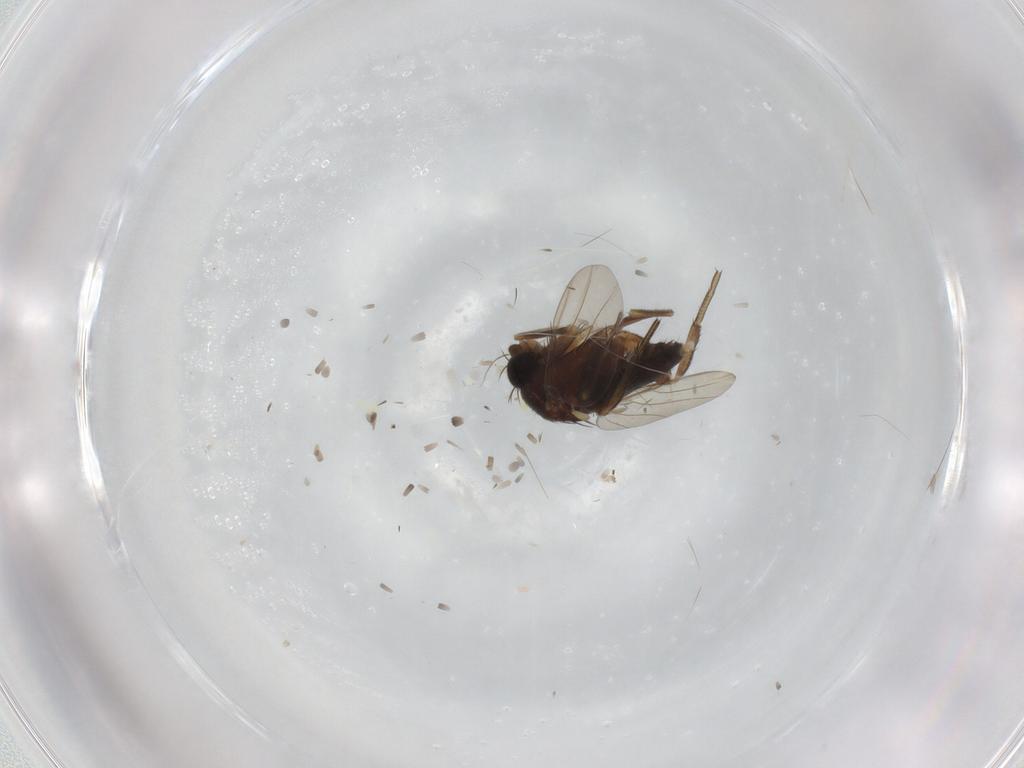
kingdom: Animalia
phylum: Arthropoda
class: Insecta
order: Diptera
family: Phoridae
